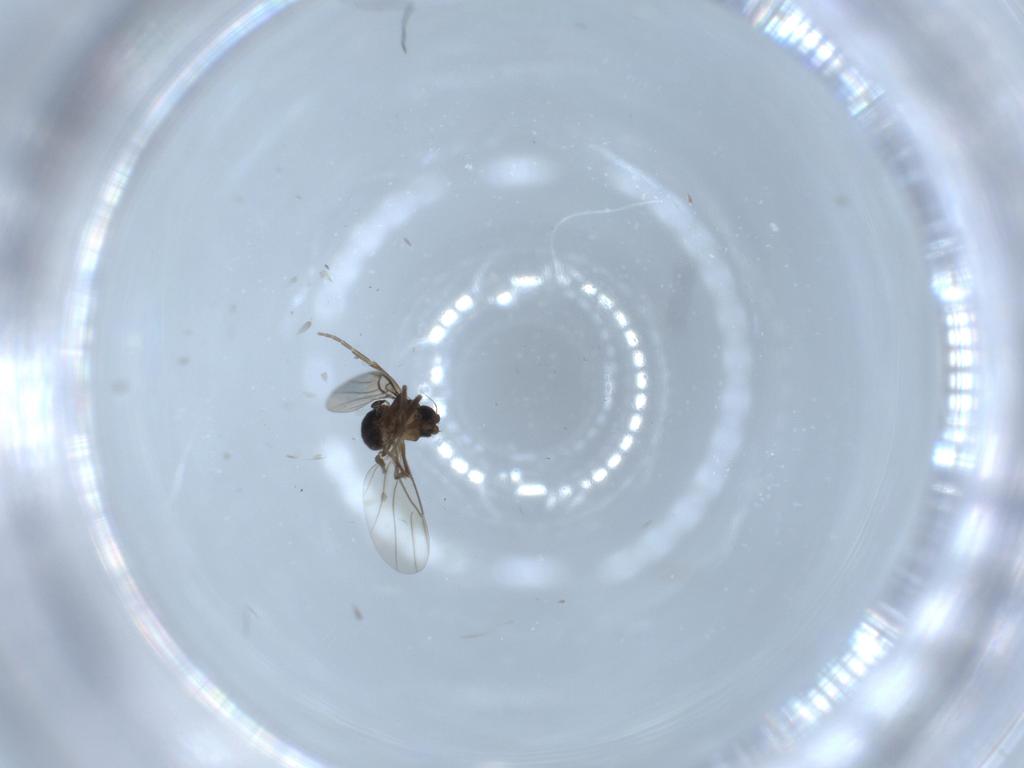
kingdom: Animalia
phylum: Arthropoda
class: Insecta
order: Diptera
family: Phoridae
